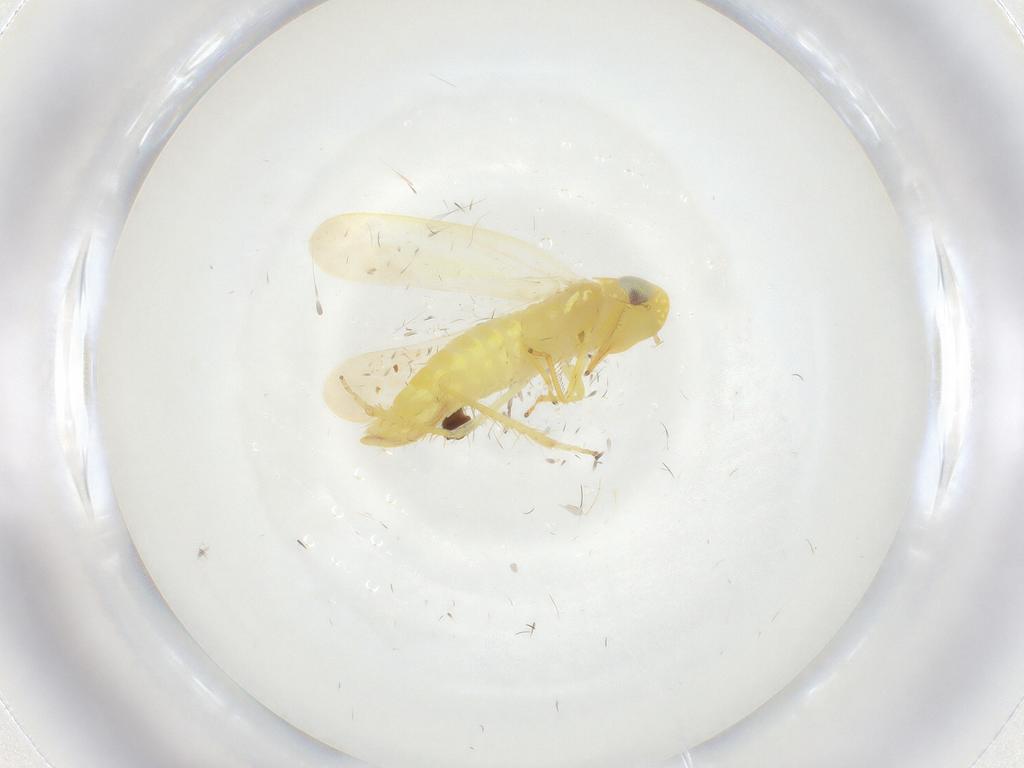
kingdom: Animalia
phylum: Arthropoda
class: Insecta
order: Hemiptera
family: Cicadellidae
